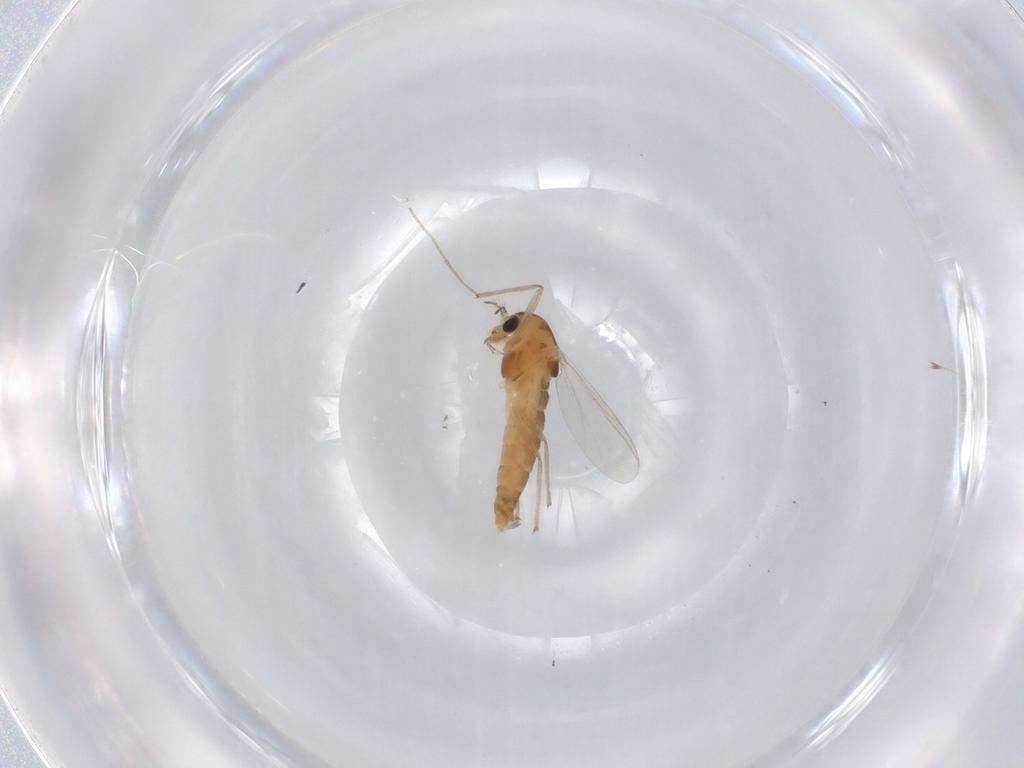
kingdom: Animalia
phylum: Arthropoda
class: Insecta
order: Diptera
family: Chironomidae
